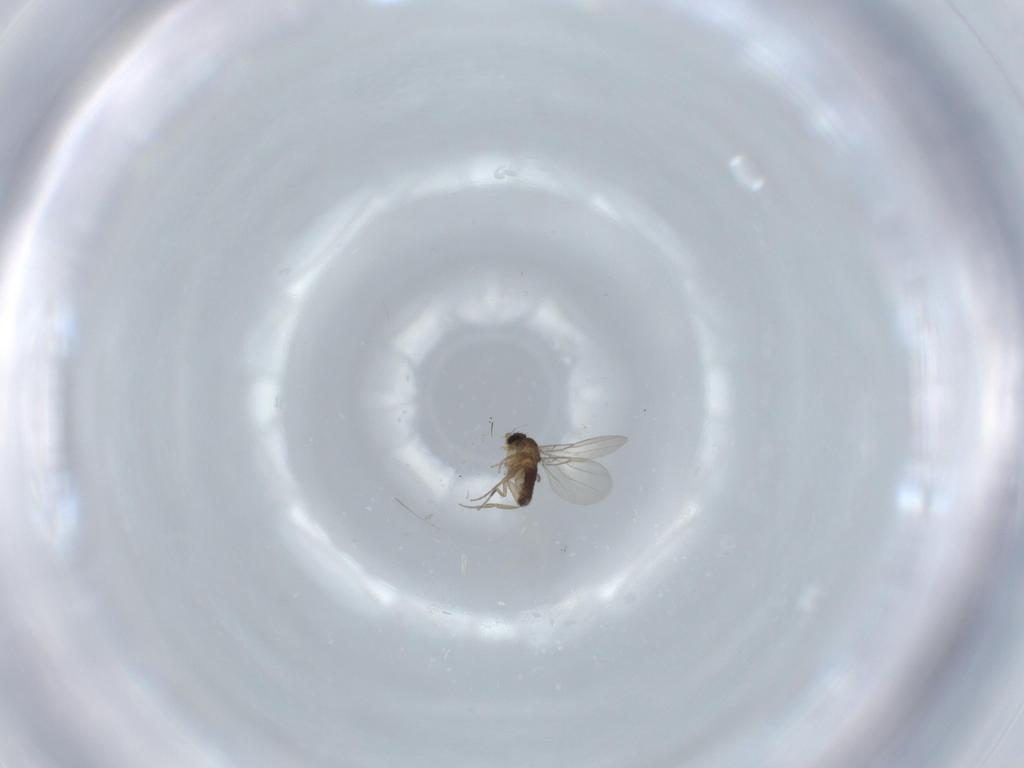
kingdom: Animalia
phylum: Arthropoda
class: Insecta
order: Diptera
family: Phoridae
